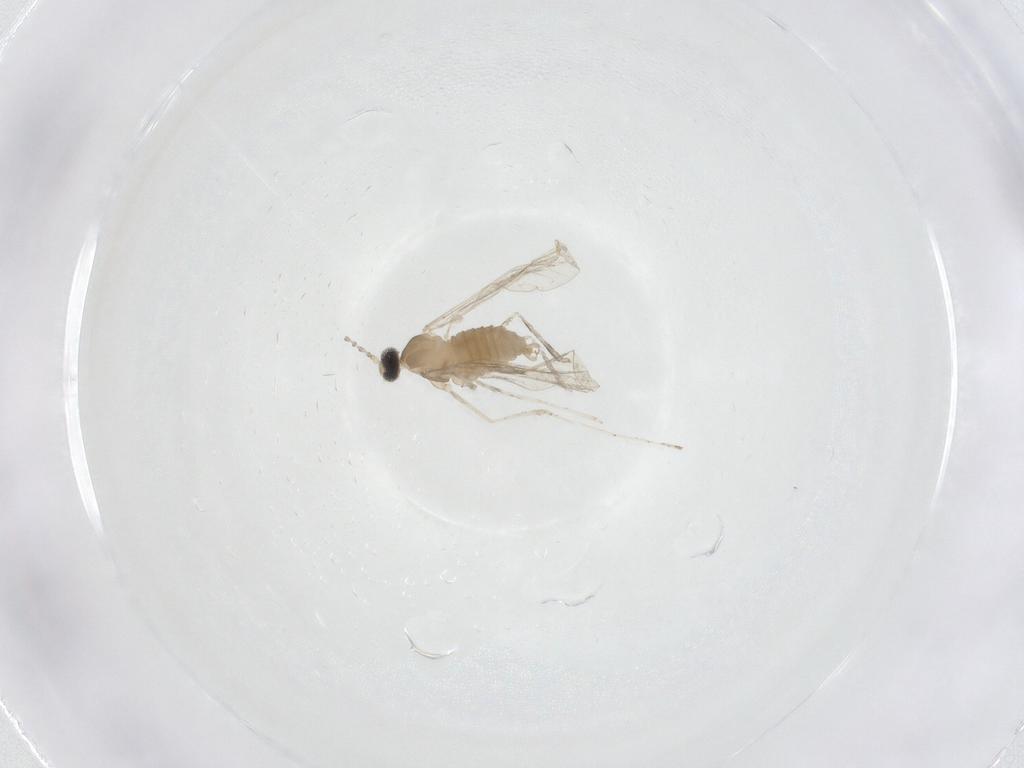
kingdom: Animalia
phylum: Arthropoda
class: Insecta
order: Diptera
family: Cecidomyiidae
